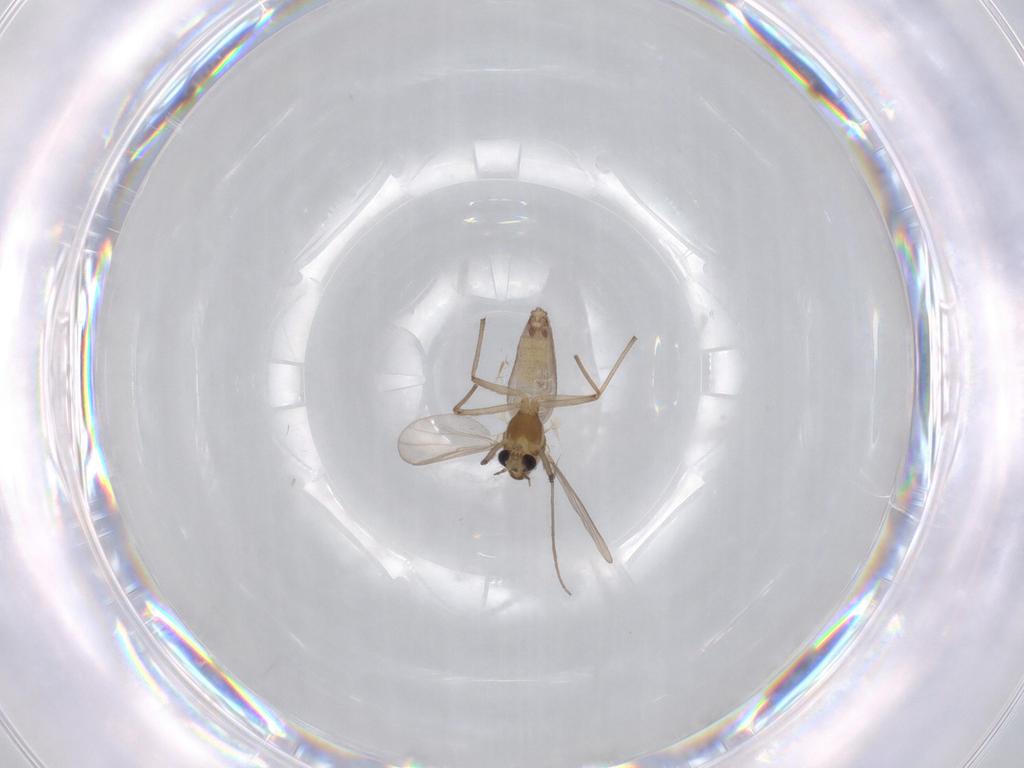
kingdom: Animalia
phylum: Arthropoda
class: Insecta
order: Diptera
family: Chironomidae
